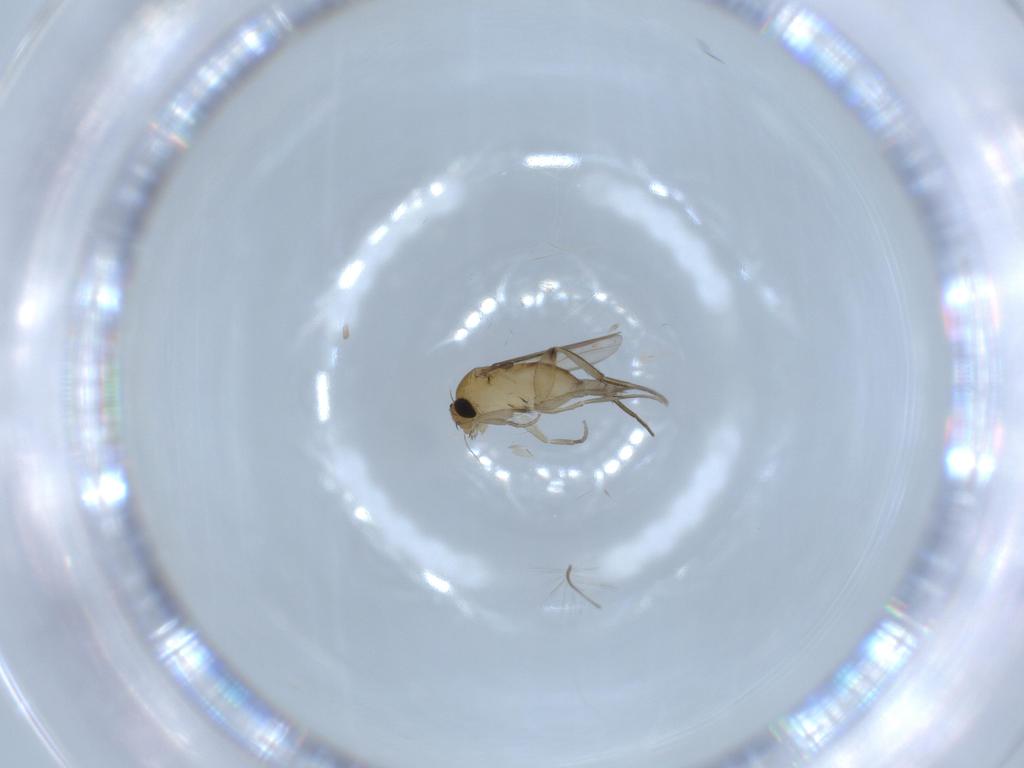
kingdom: Animalia
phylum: Arthropoda
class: Insecta
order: Diptera
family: Phoridae
